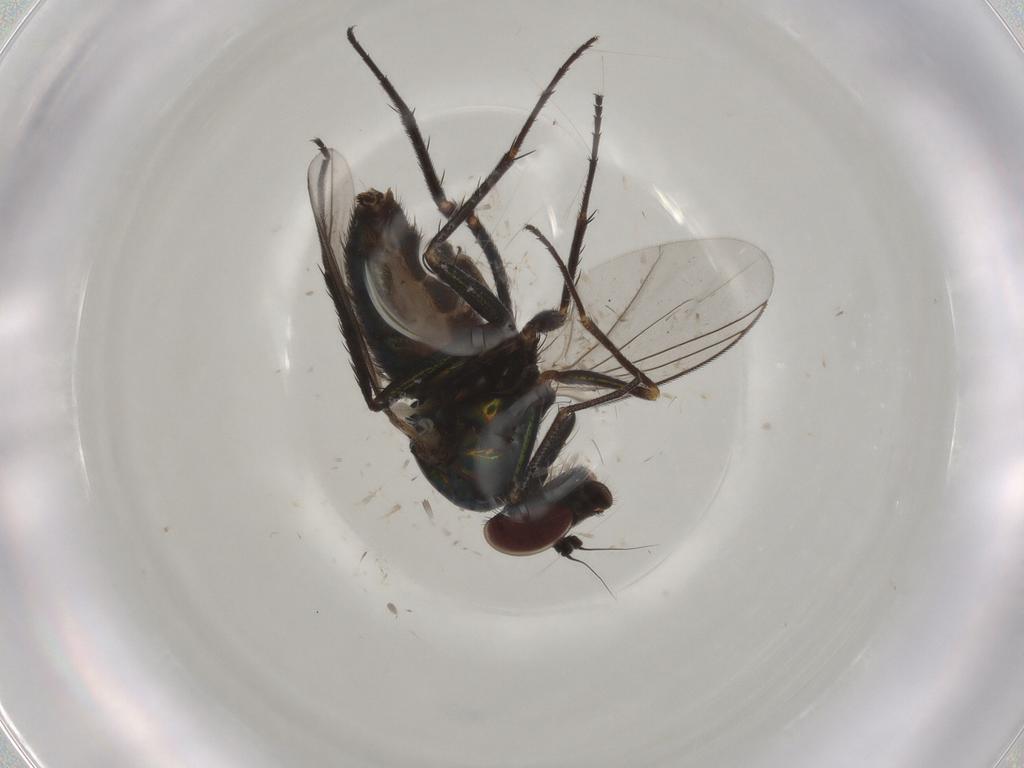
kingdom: Animalia
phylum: Arthropoda
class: Insecta
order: Diptera
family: Dolichopodidae
